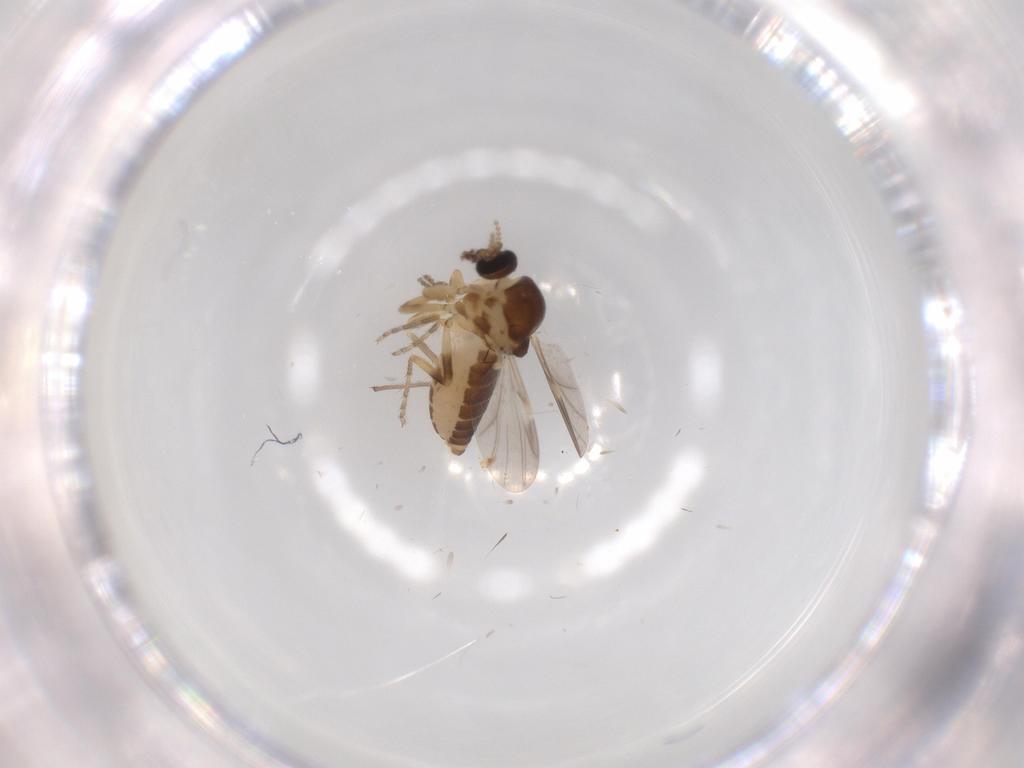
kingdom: Animalia
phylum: Arthropoda
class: Insecta
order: Diptera
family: Ceratopogonidae
